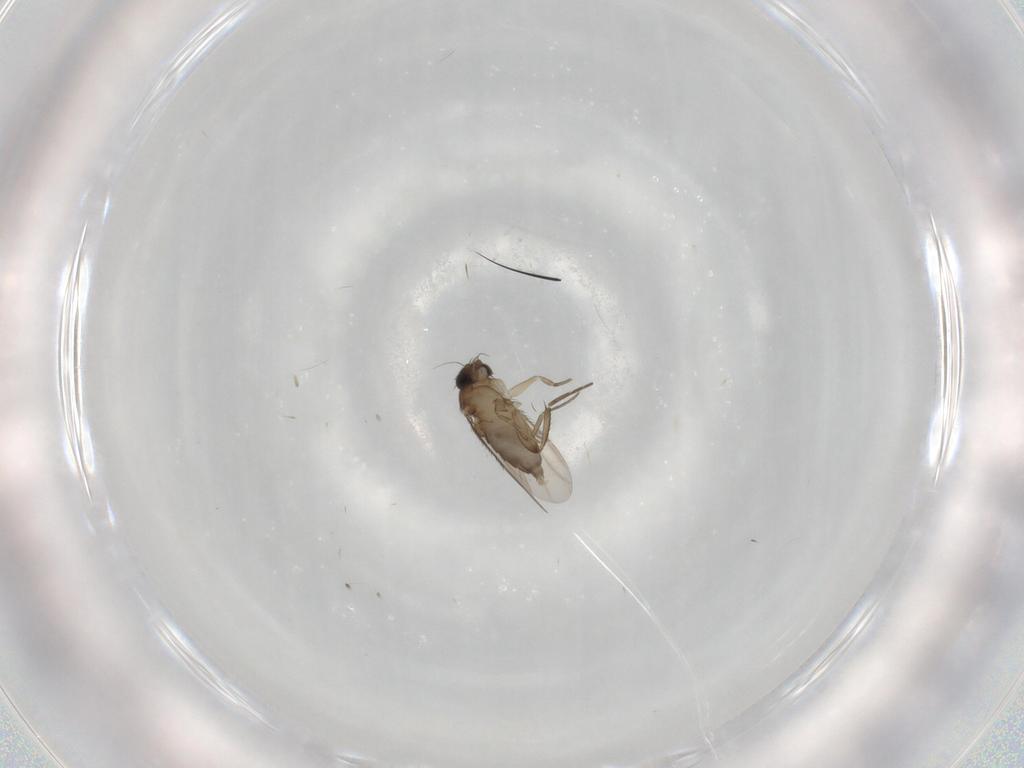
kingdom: Animalia
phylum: Arthropoda
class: Insecta
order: Diptera
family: Phoridae
